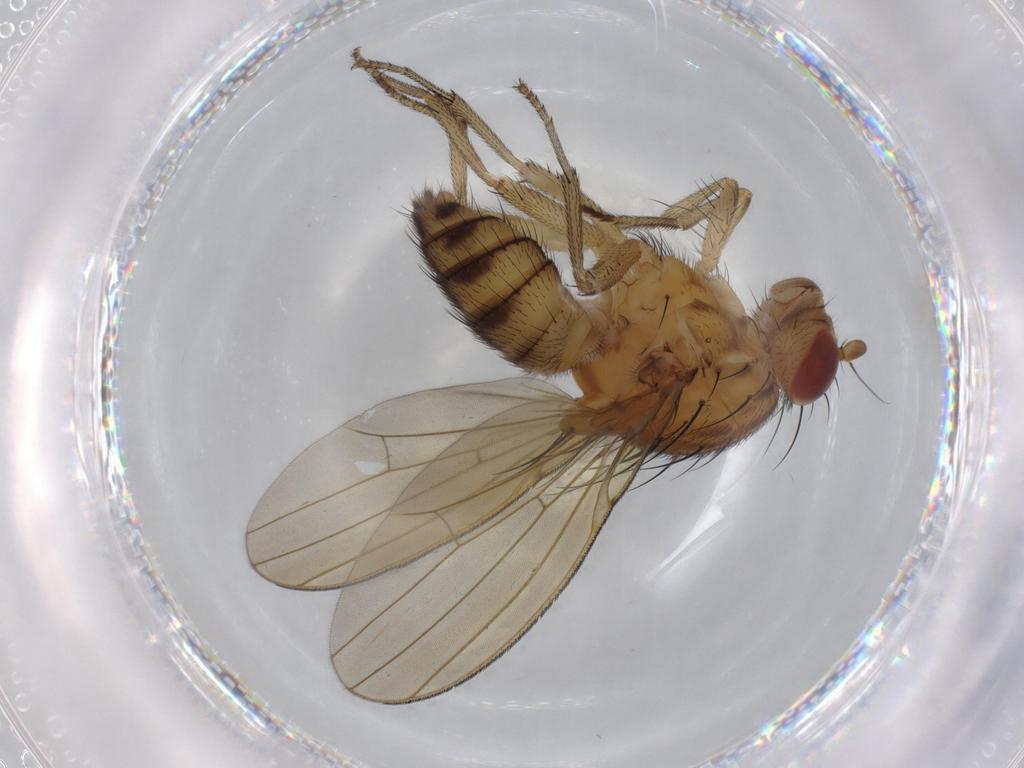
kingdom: Animalia
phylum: Arthropoda
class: Insecta
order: Diptera
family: Sciaridae
